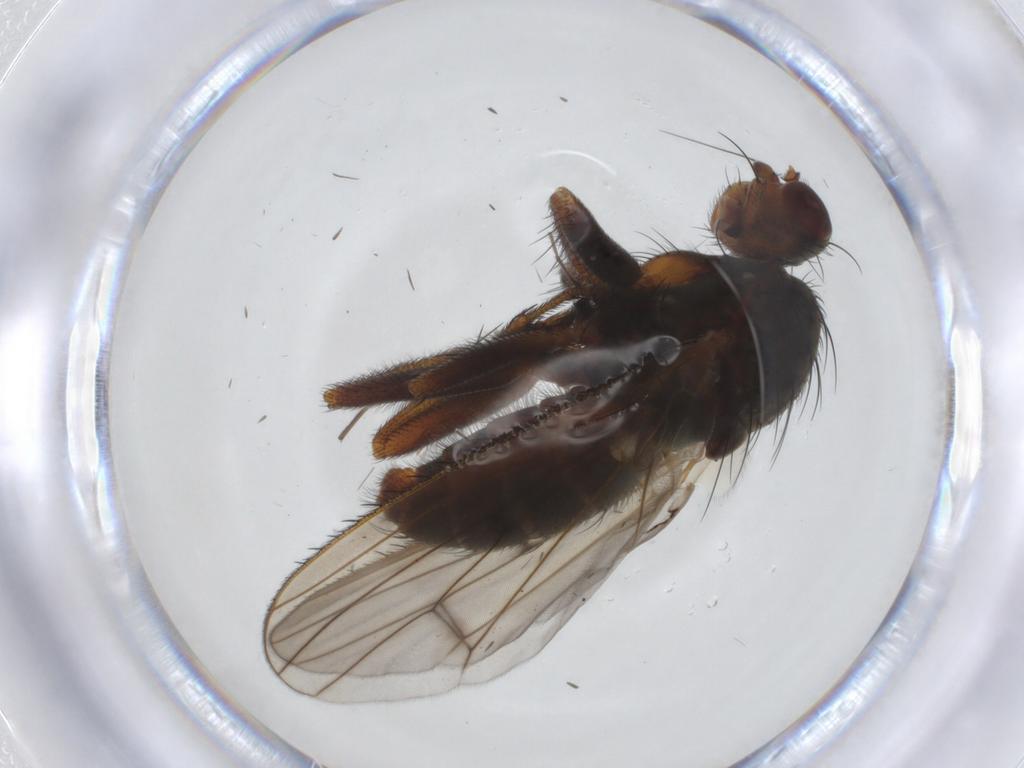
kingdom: Animalia
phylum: Arthropoda
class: Insecta
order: Diptera
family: Heleomyzidae
